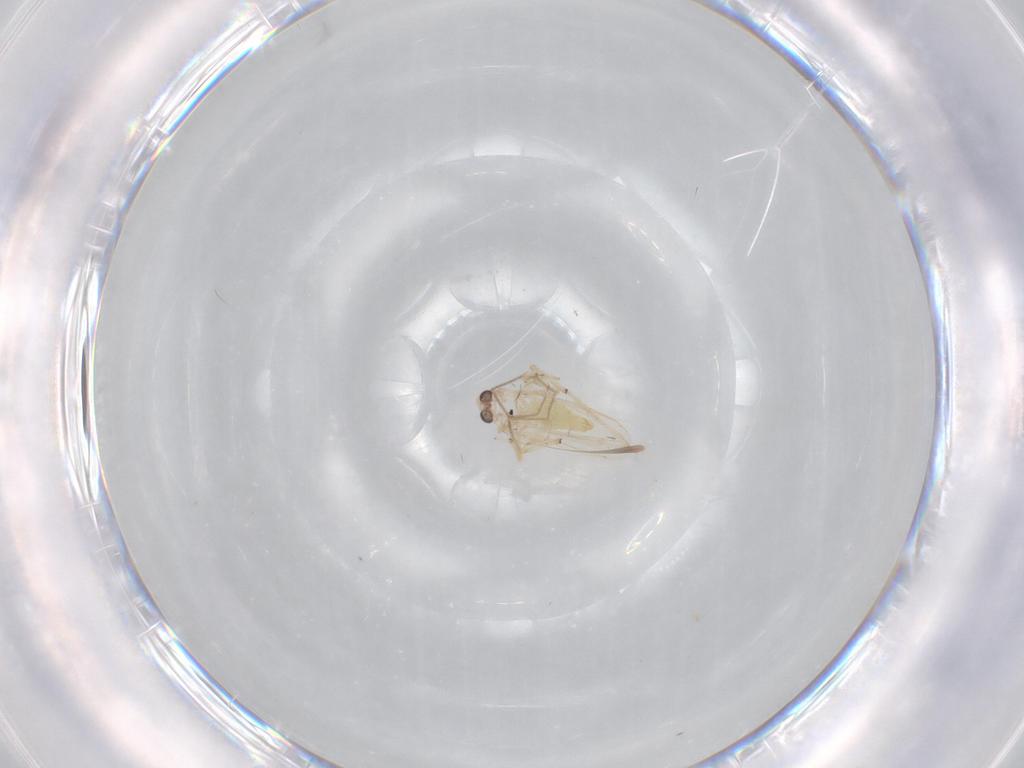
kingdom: Animalia
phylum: Arthropoda
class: Insecta
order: Diptera
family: Chironomidae
